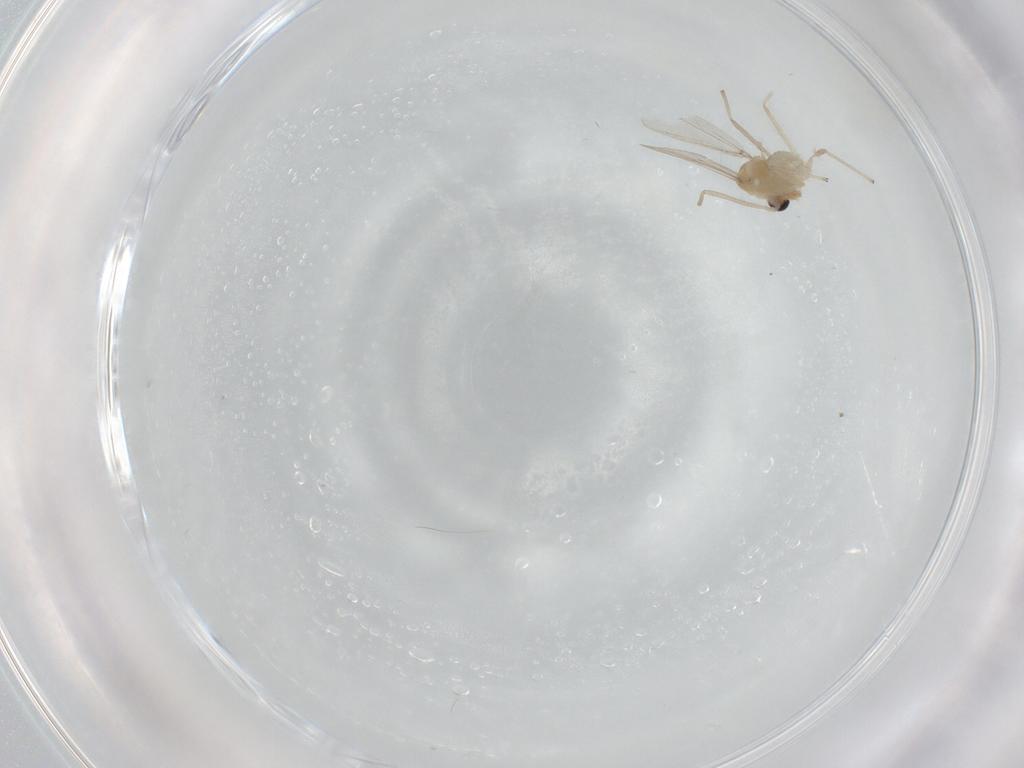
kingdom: Animalia
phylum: Arthropoda
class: Insecta
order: Diptera
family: Chironomidae
